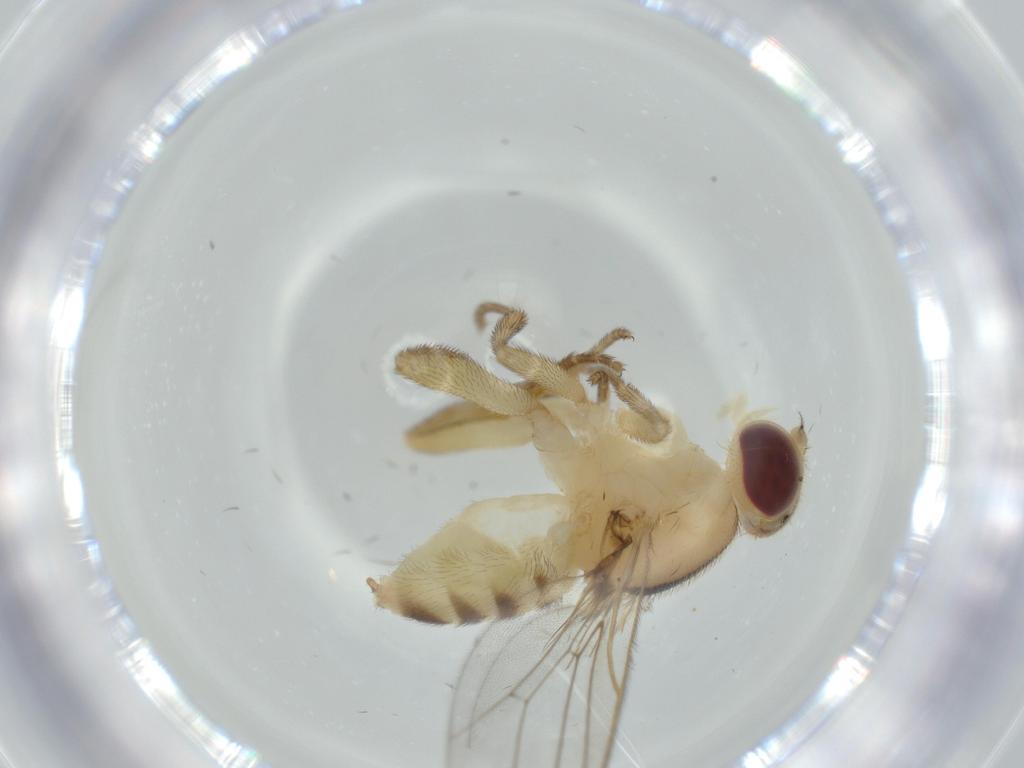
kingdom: Animalia
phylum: Arthropoda
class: Insecta
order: Diptera
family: Chloropidae
